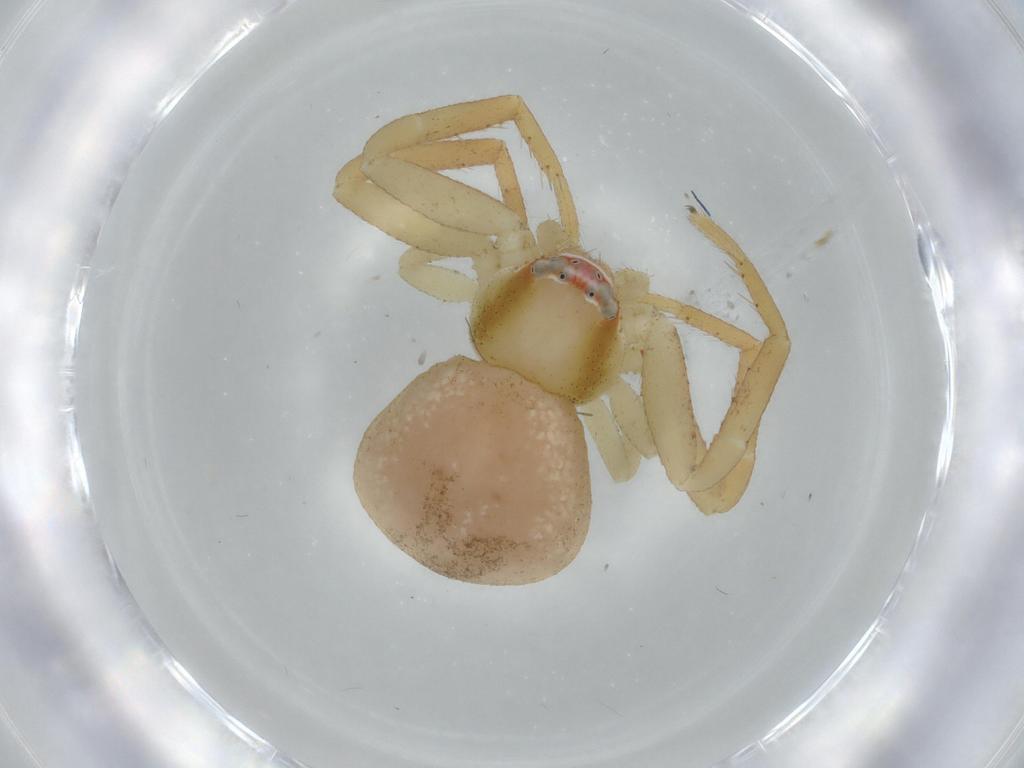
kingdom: Animalia
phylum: Arthropoda
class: Arachnida
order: Araneae
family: Thomisidae
